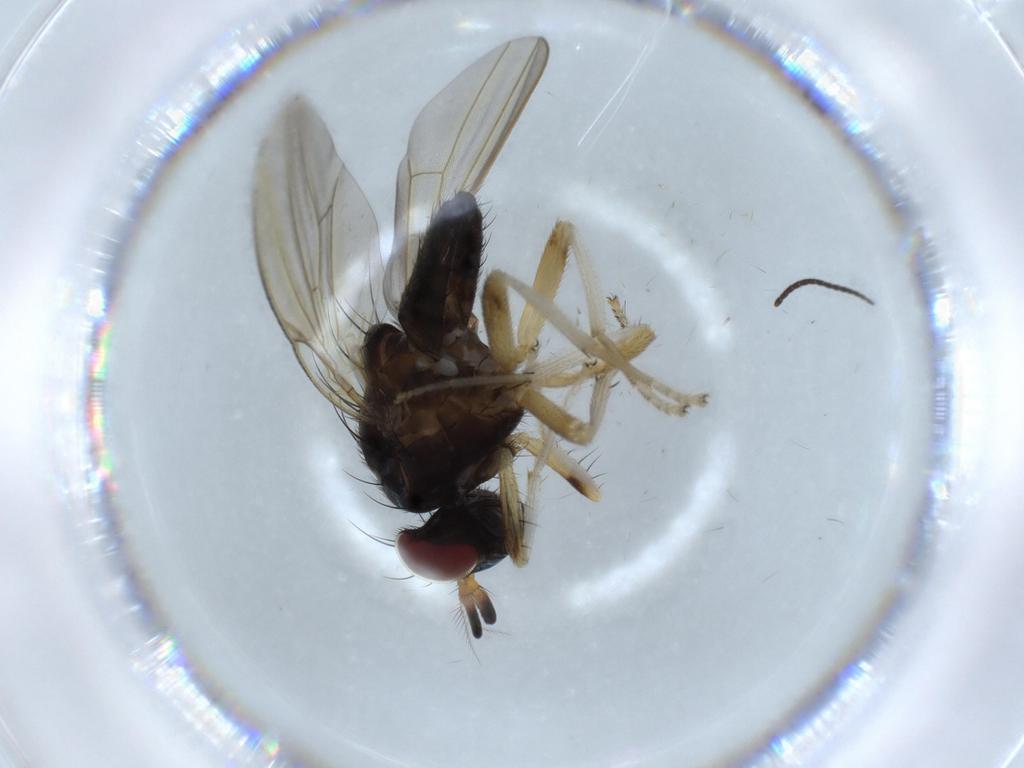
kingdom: Animalia
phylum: Arthropoda
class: Insecta
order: Diptera
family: Sciaridae
